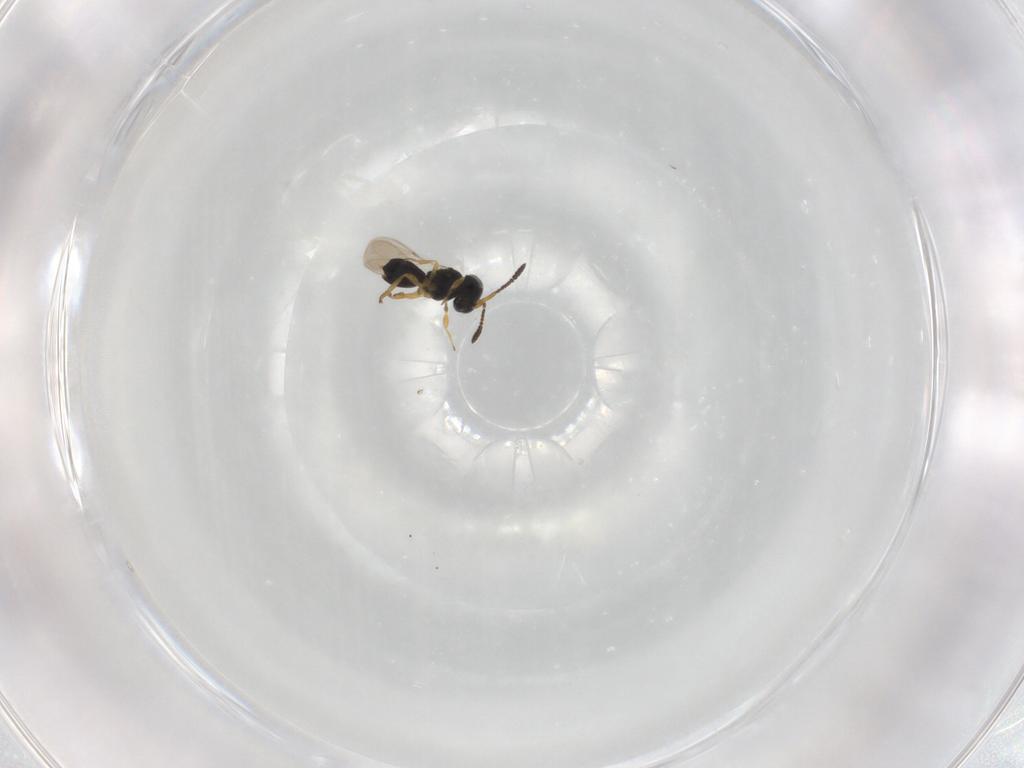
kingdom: Animalia
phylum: Arthropoda
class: Insecta
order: Hymenoptera
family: Scelionidae
